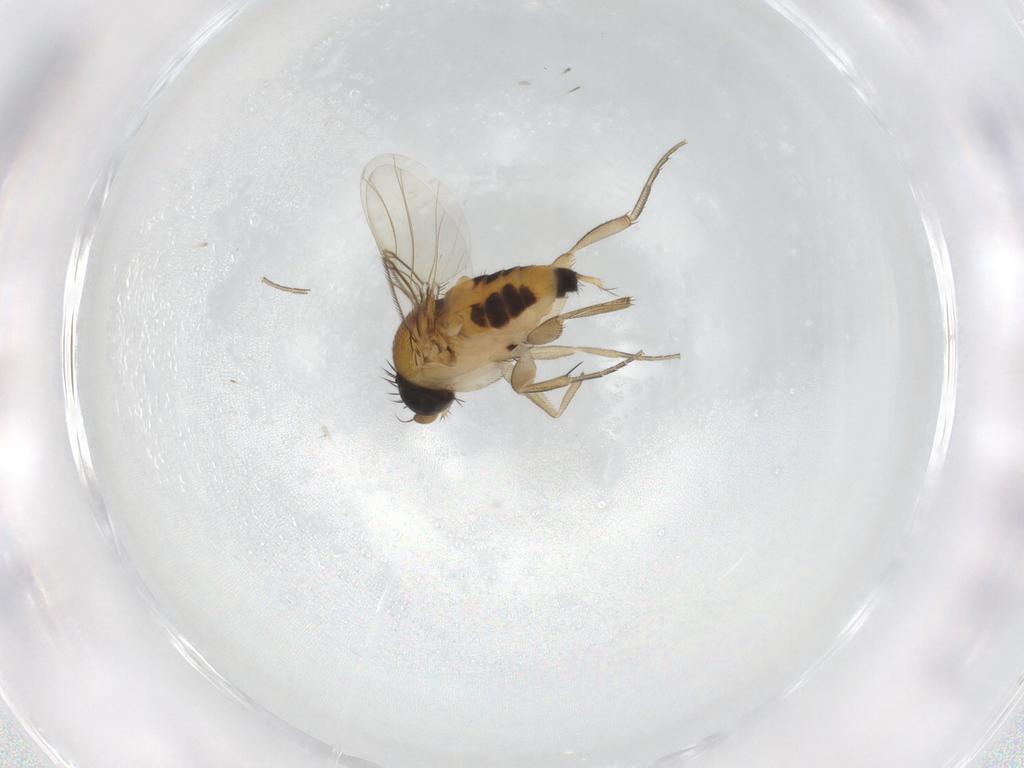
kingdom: Animalia
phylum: Arthropoda
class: Insecta
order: Diptera
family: Phoridae
